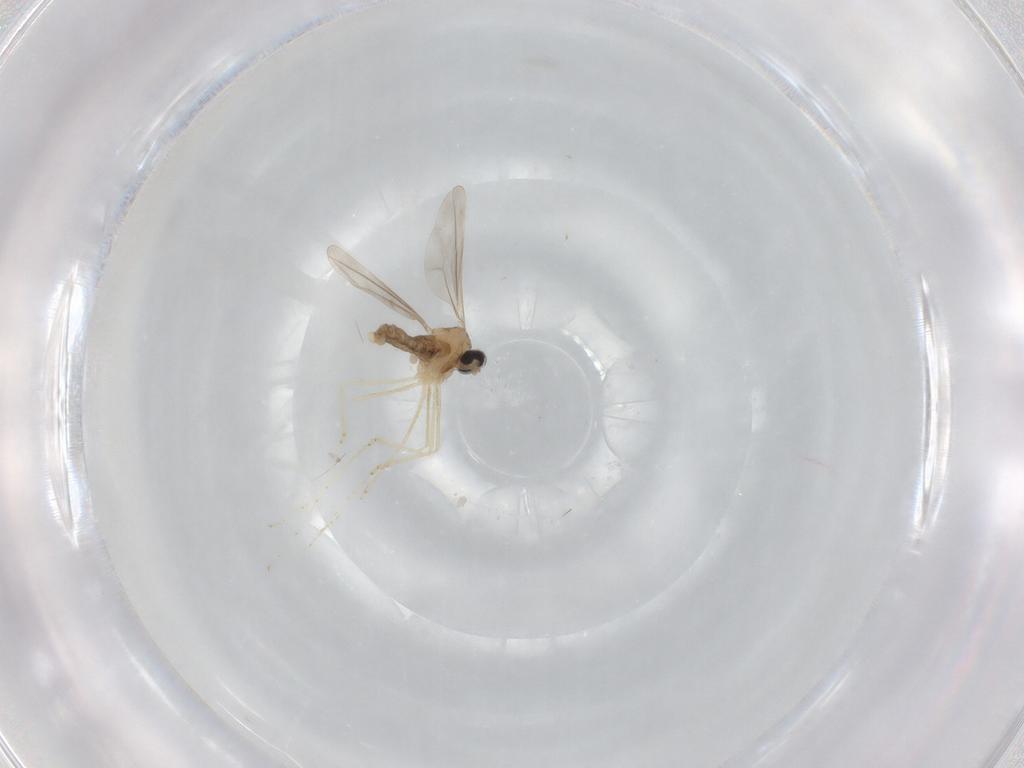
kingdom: Animalia
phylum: Arthropoda
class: Insecta
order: Diptera
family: Cecidomyiidae
